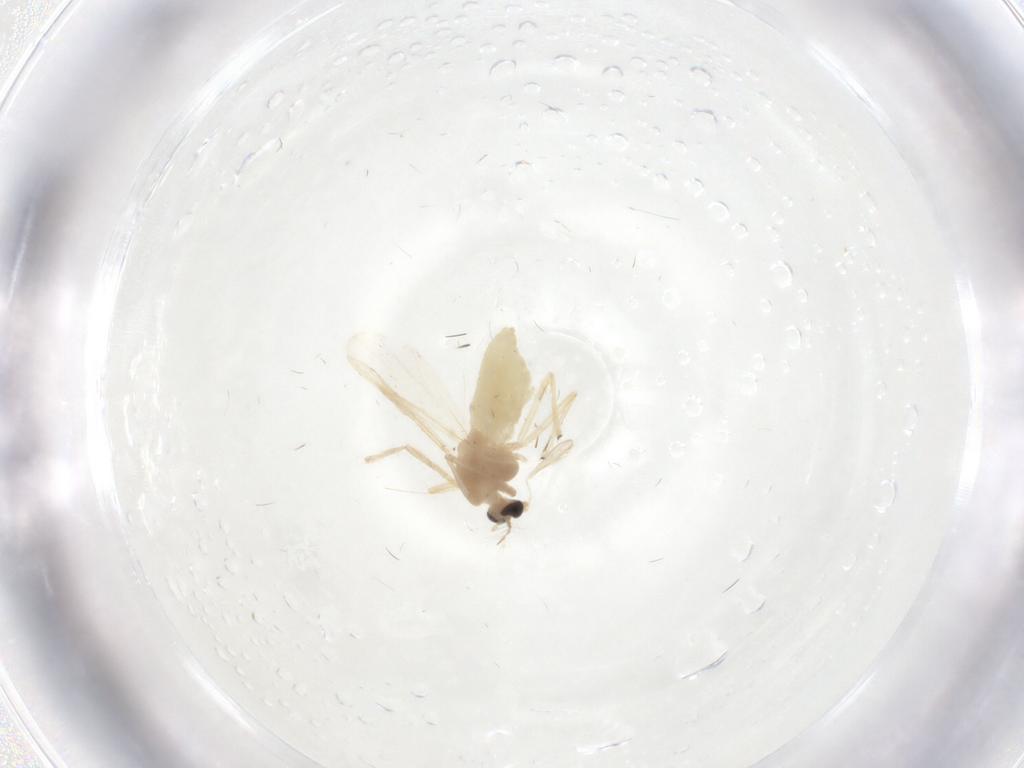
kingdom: Animalia
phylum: Arthropoda
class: Insecta
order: Diptera
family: Chironomidae
